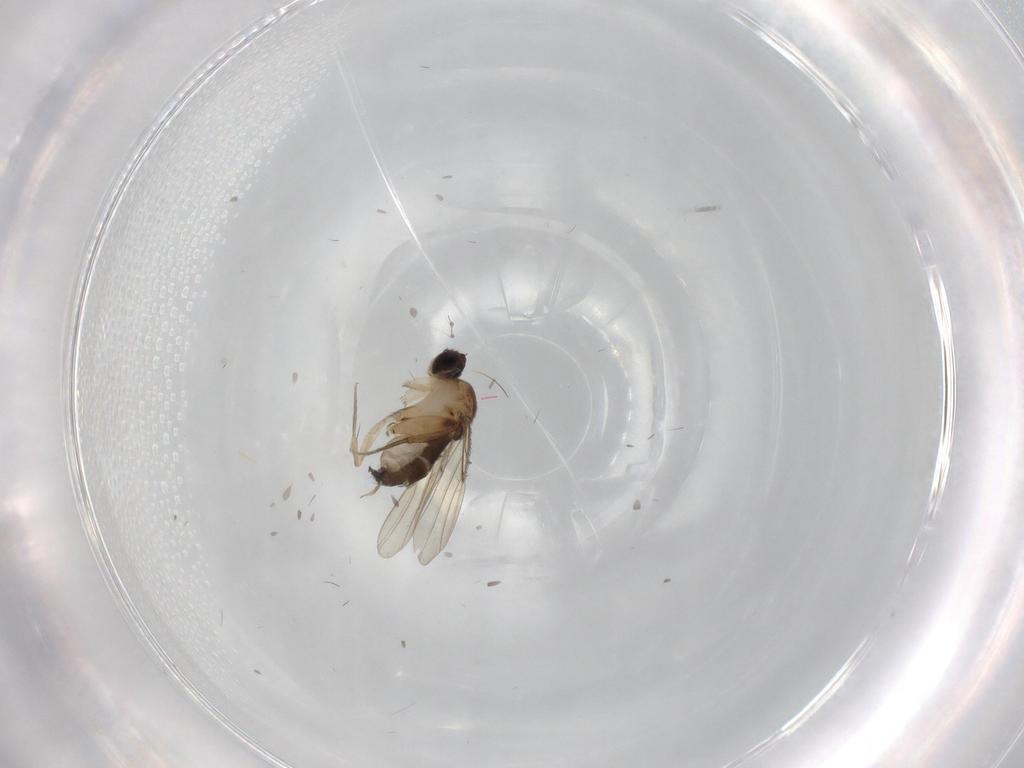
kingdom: Animalia
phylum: Arthropoda
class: Insecta
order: Diptera
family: Phoridae
